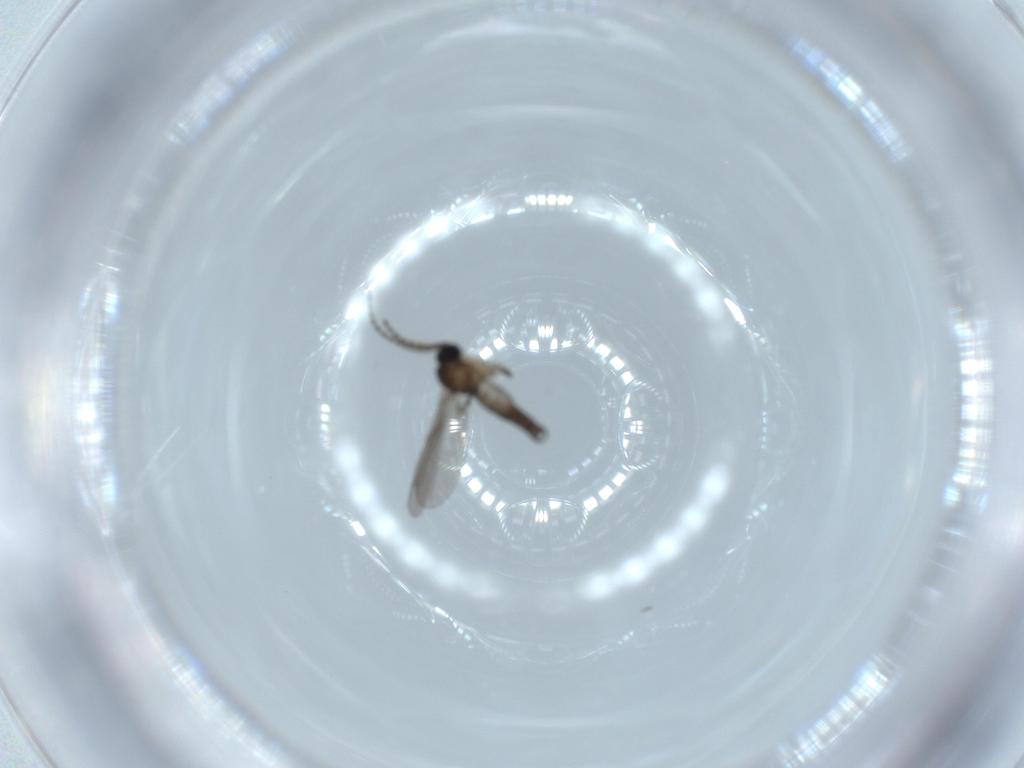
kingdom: Animalia
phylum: Arthropoda
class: Insecta
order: Diptera
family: Sciaridae
